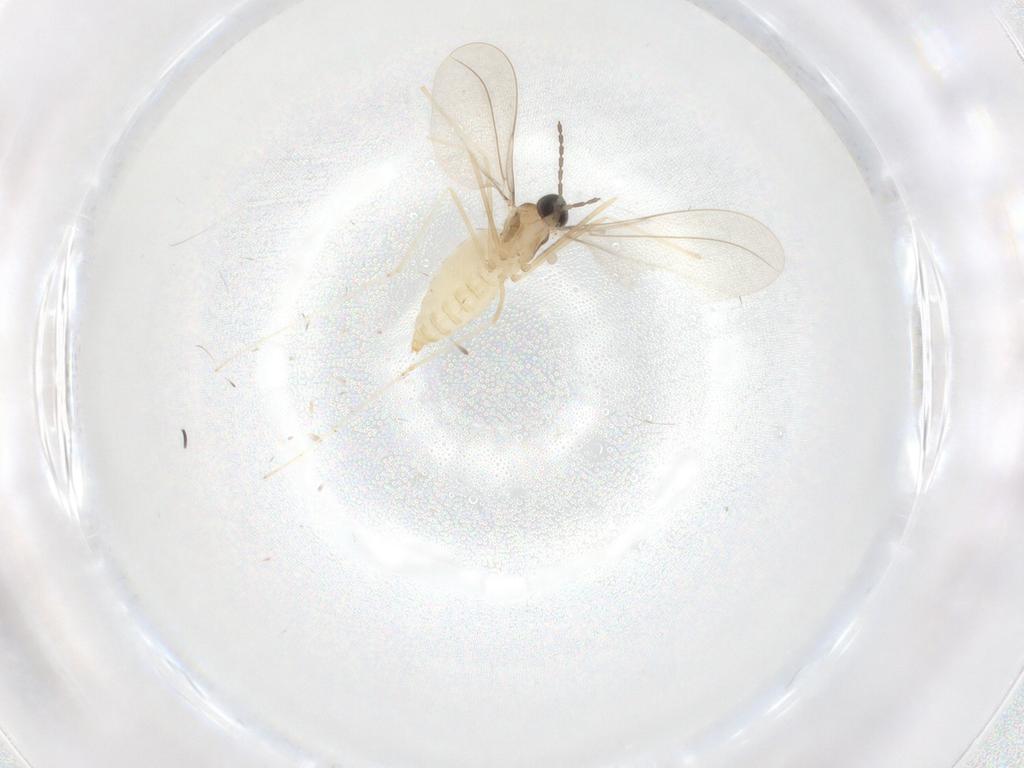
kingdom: Animalia
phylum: Arthropoda
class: Insecta
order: Diptera
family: Cecidomyiidae
